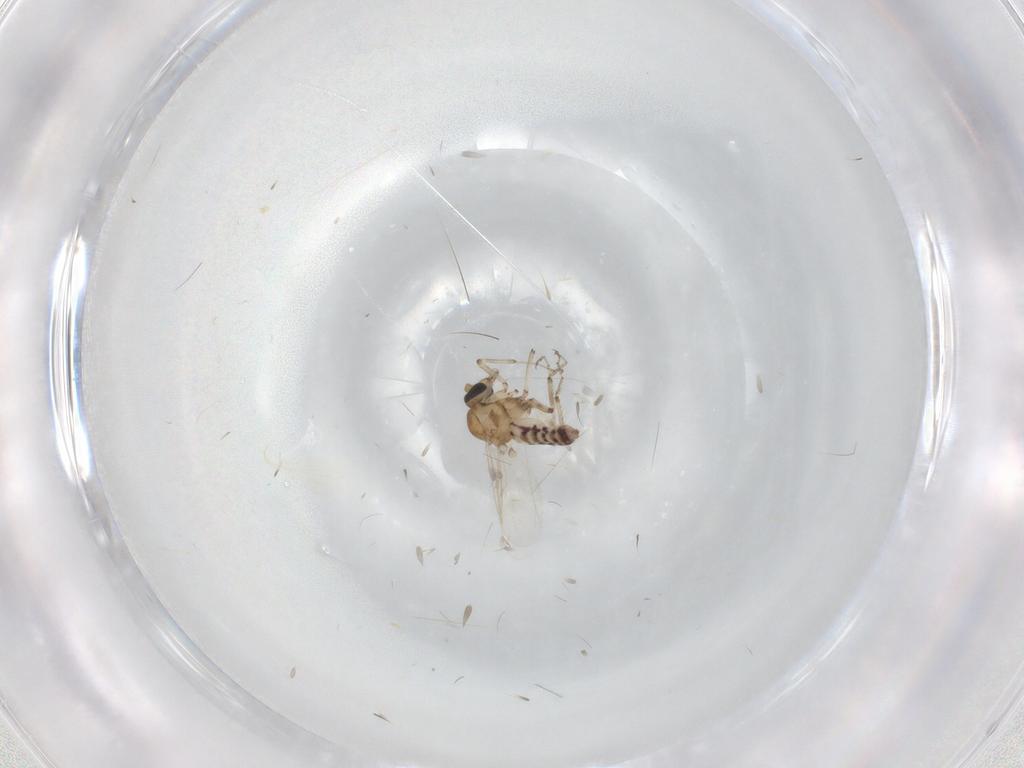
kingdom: Animalia
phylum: Arthropoda
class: Insecta
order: Diptera
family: Ceratopogonidae
